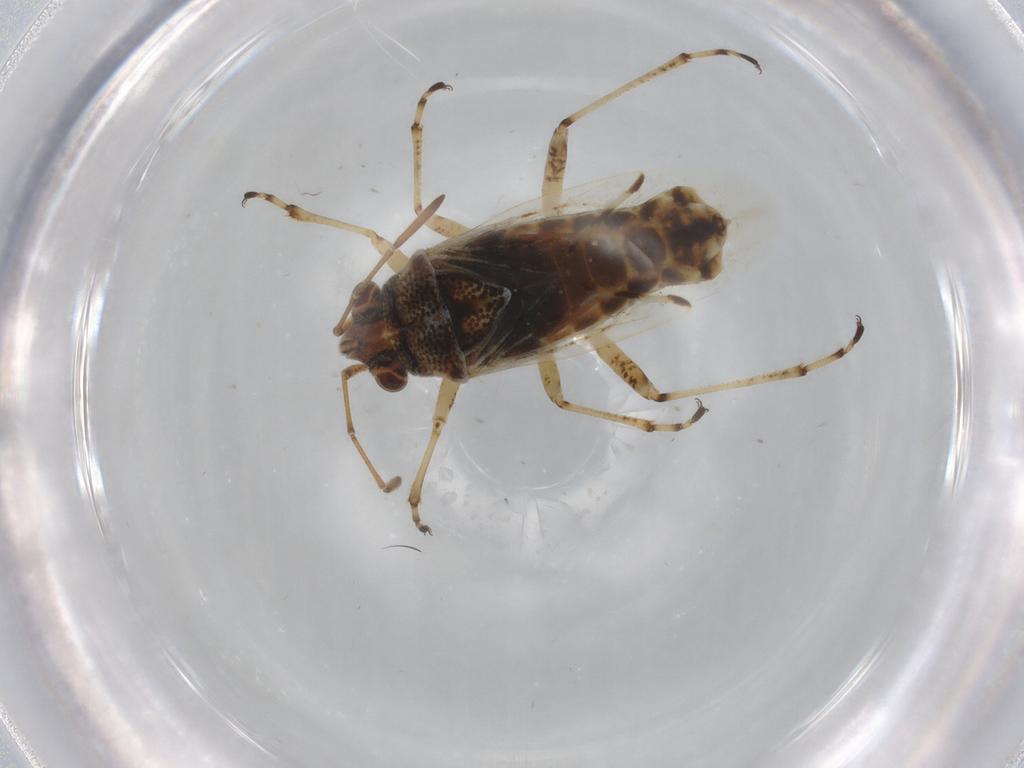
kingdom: Animalia
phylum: Arthropoda
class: Insecta
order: Hemiptera
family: Lygaeidae
